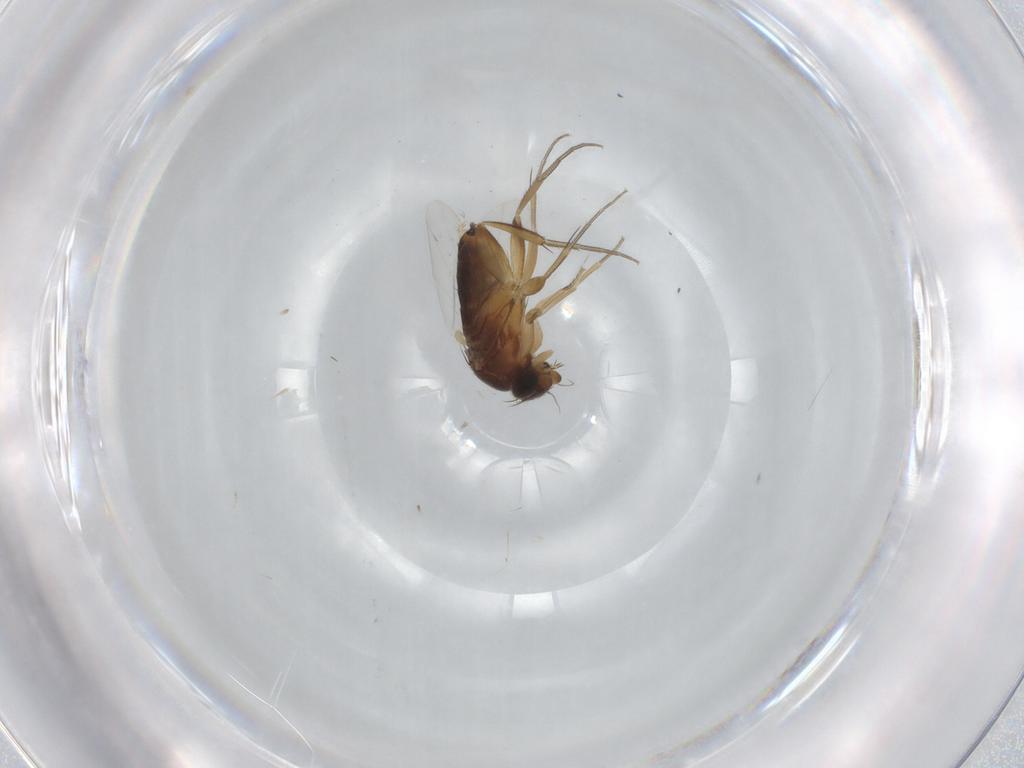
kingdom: Animalia
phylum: Arthropoda
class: Insecta
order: Diptera
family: Phoridae
